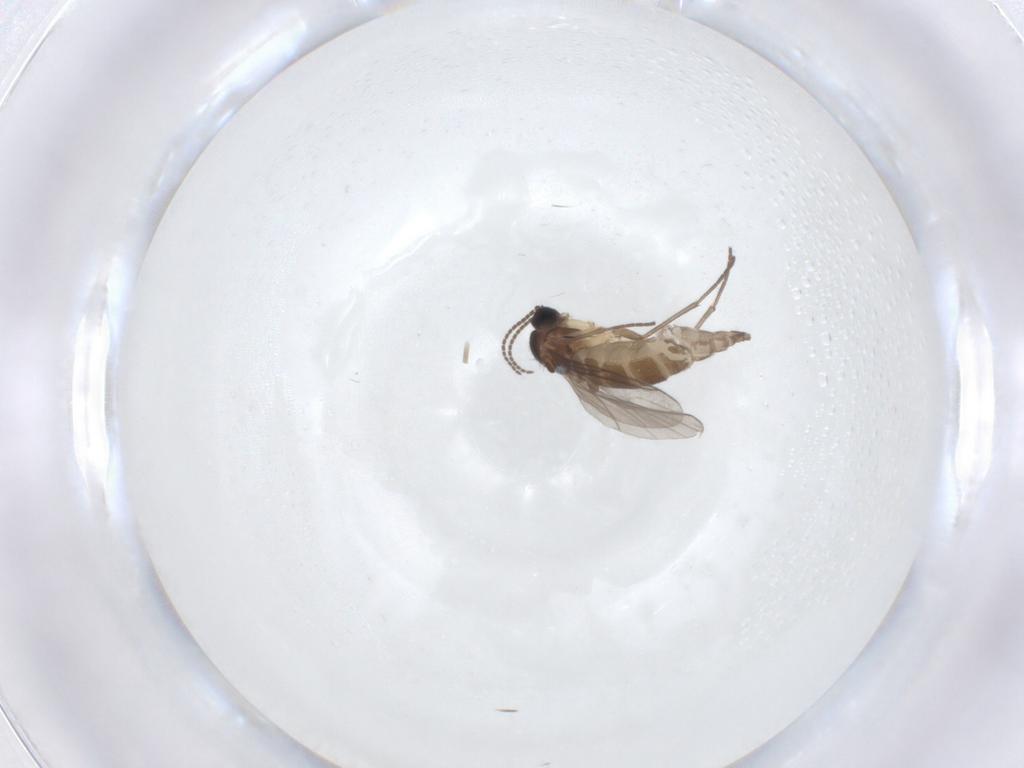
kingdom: Animalia
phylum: Arthropoda
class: Insecta
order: Diptera
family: Sciaridae
